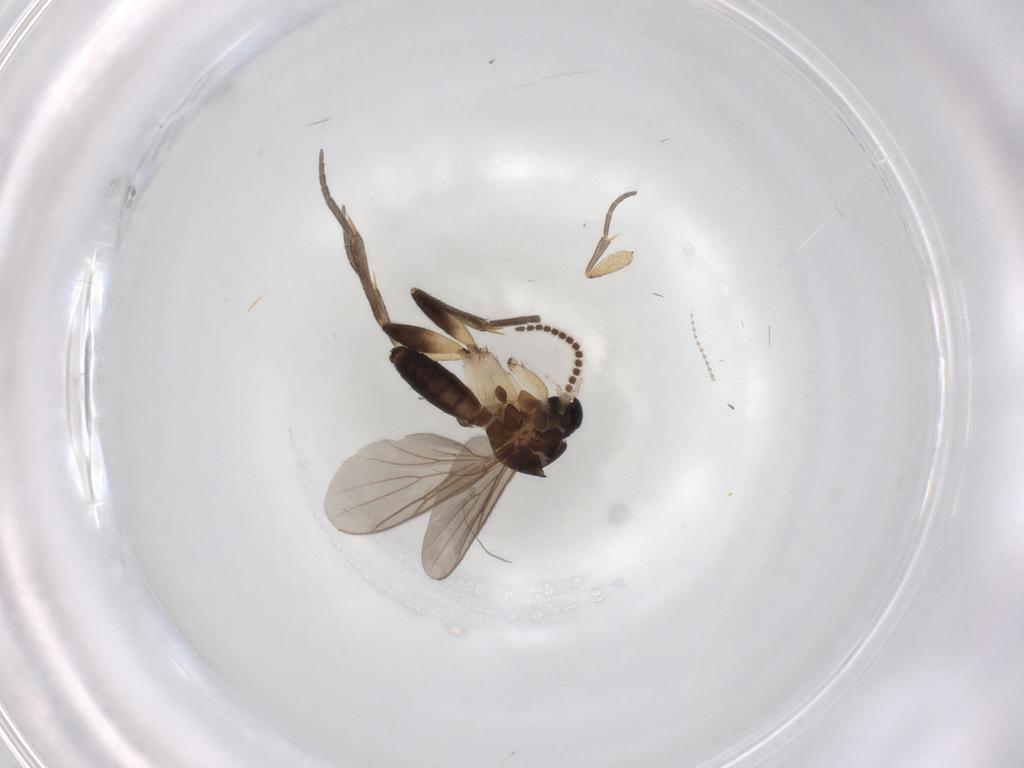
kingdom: Animalia
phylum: Arthropoda
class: Insecta
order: Diptera
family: Mycetophilidae
